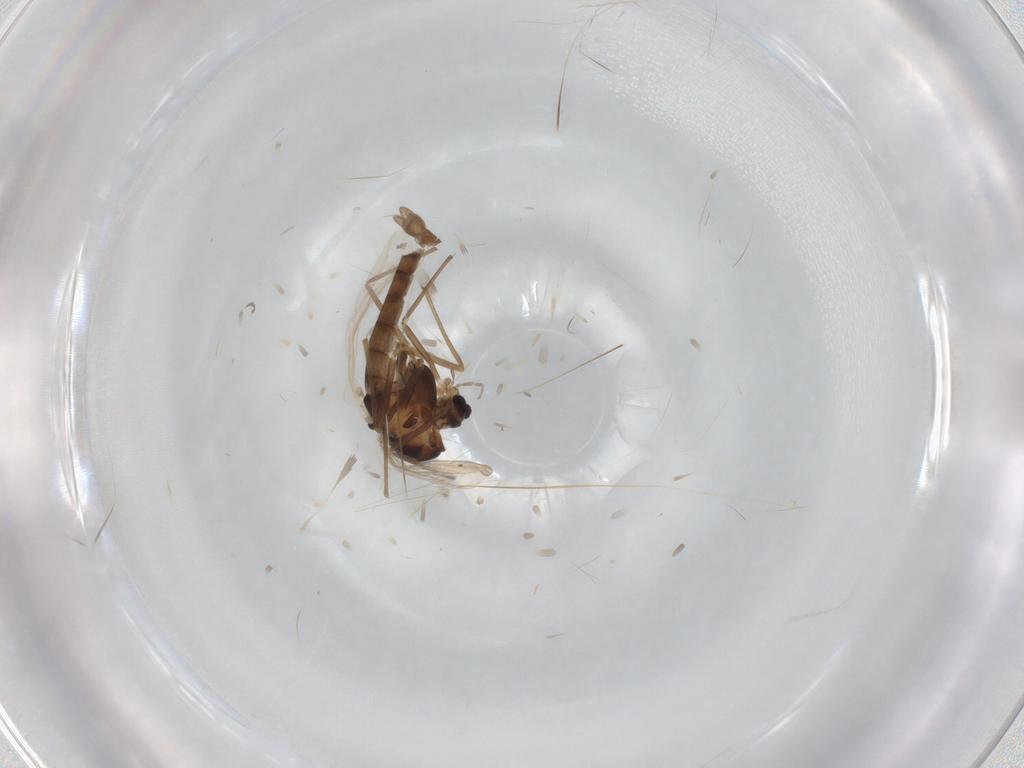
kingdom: Animalia
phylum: Arthropoda
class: Insecta
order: Diptera
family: Chironomidae
